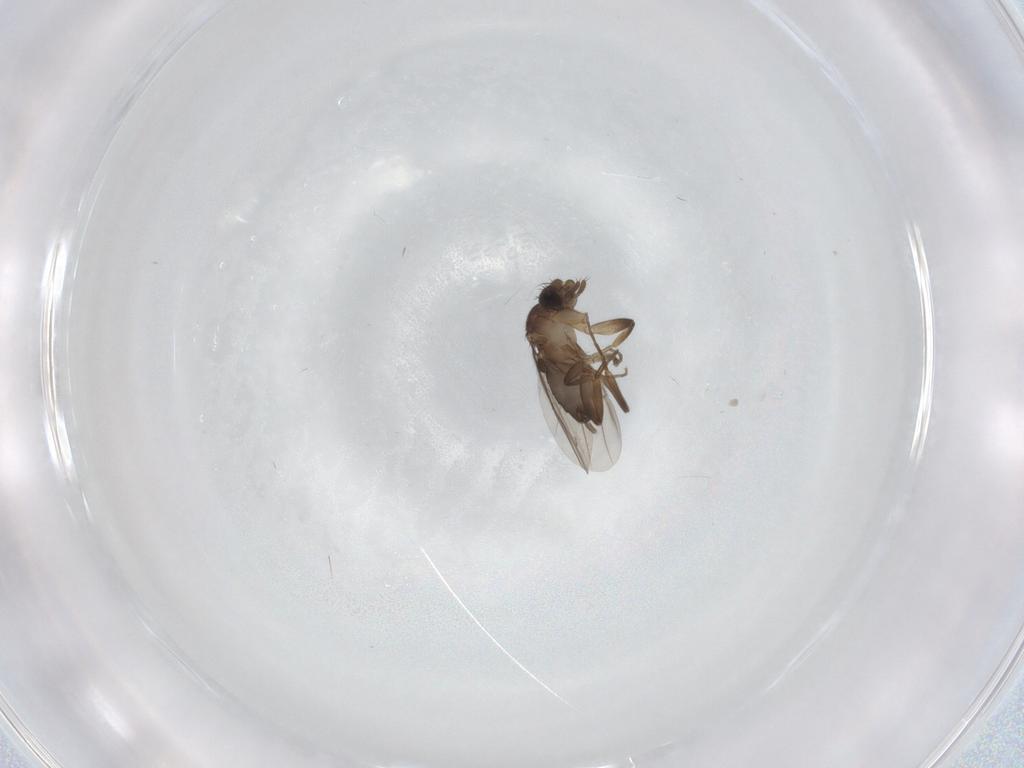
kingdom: Animalia
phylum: Arthropoda
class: Insecta
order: Diptera
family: Phoridae
